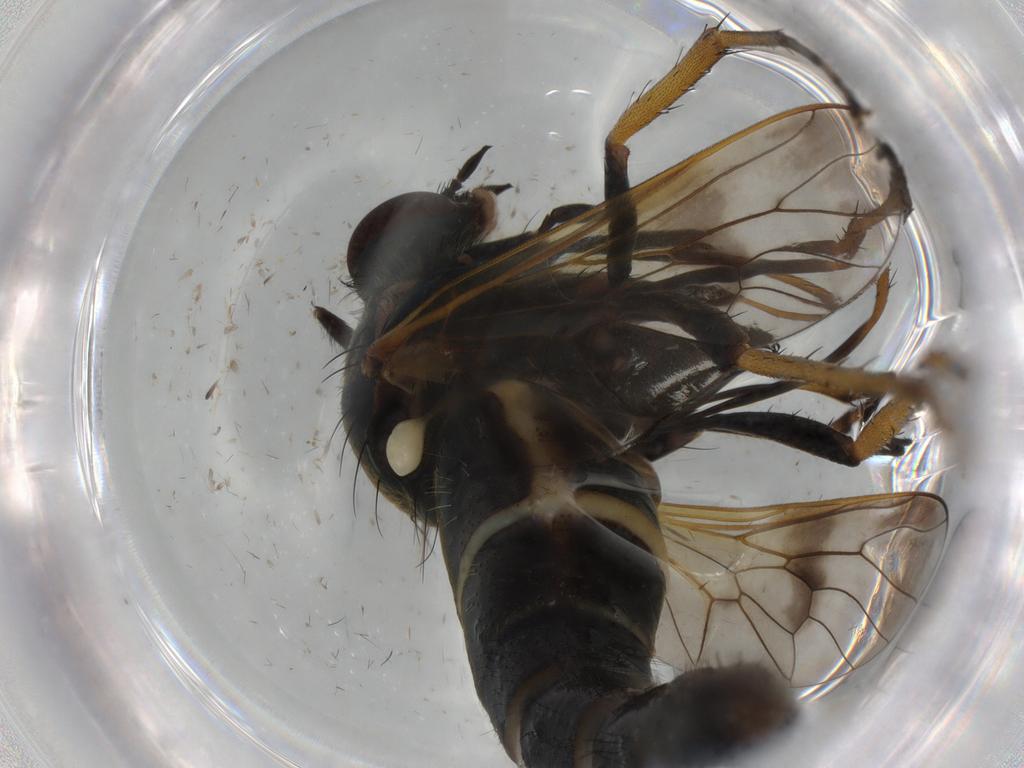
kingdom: Animalia
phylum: Arthropoda
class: Insecta
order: Diptera
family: Therevidae
